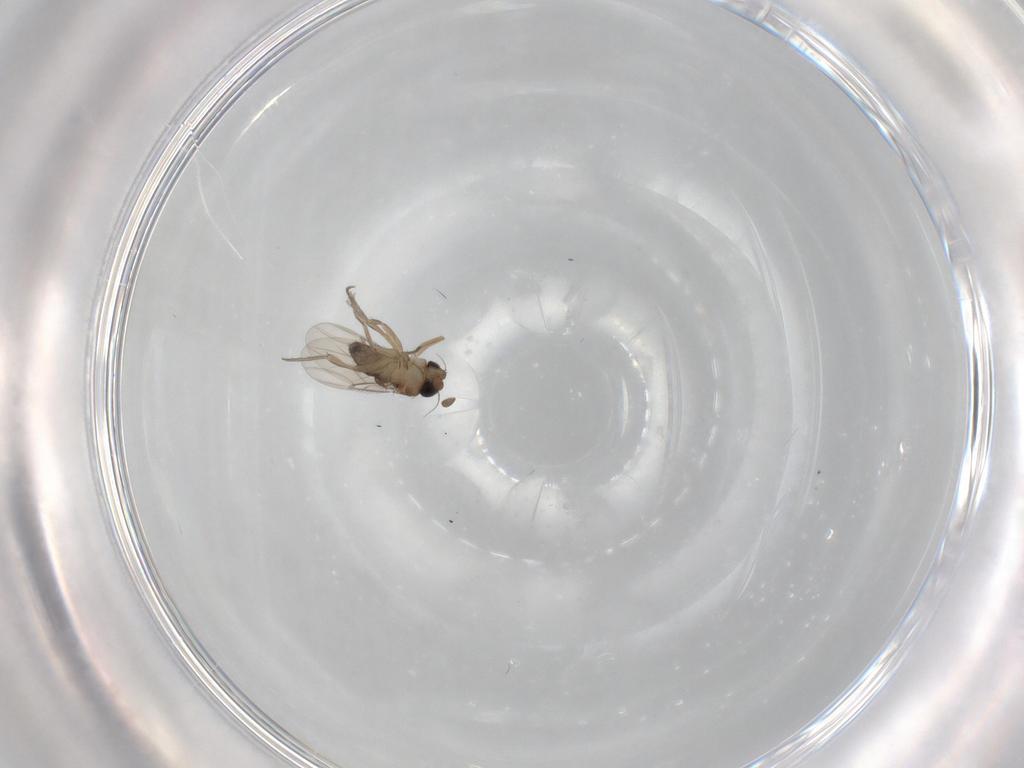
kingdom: Animalia
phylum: Arthropoda
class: Insecta
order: Diptera
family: Phoridae
